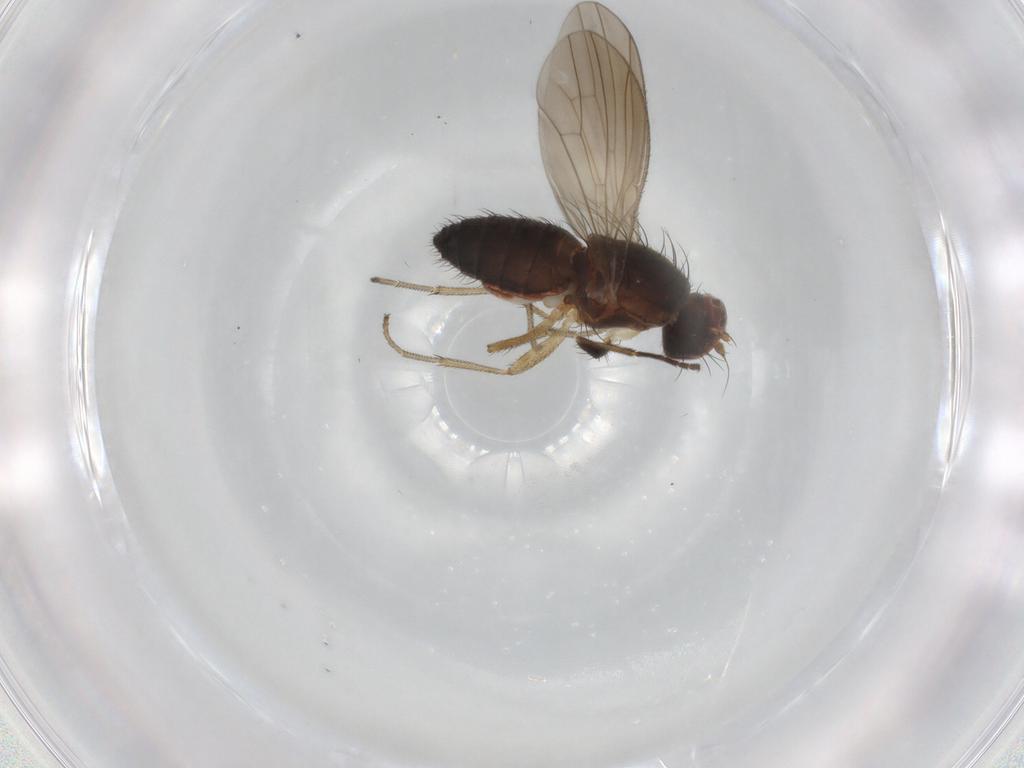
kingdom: Animalia
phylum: Arthropoda
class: Insecta
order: Diptera
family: Heleomyzidae
